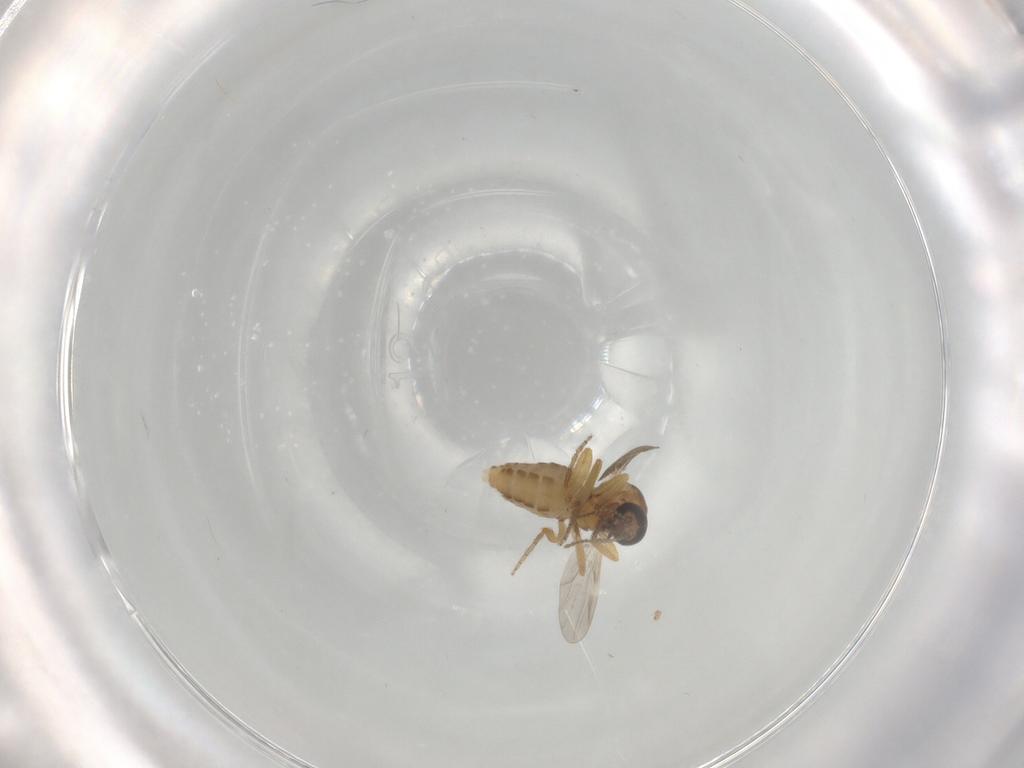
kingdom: Animalia
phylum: Arthropoda
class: Insecta
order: Diptera
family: Ceratopogonidae
